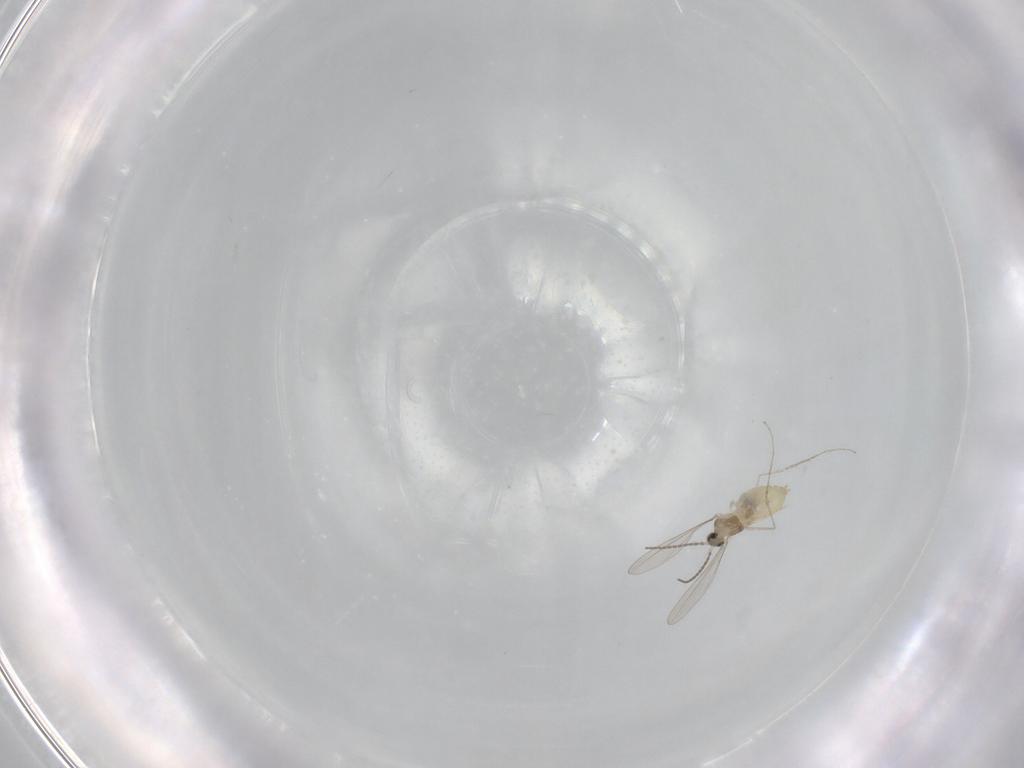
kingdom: Animalia
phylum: Arthropoda
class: Insecta
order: Diptera
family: Cecidomyiidae
